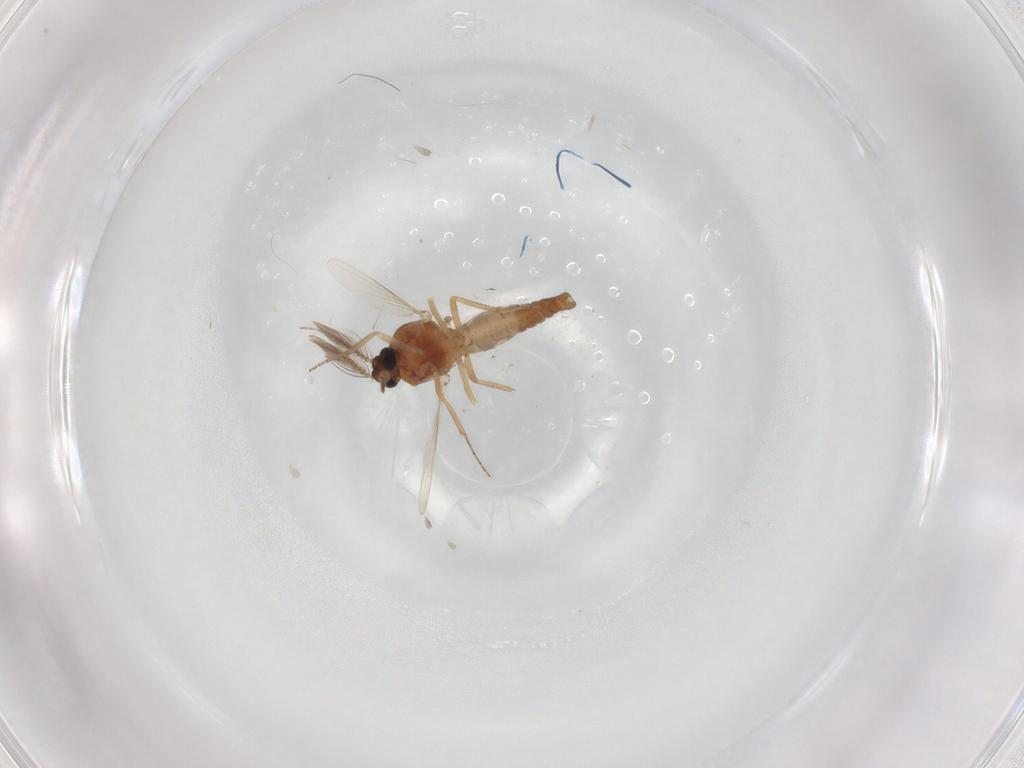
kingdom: Animalia
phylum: Arthropoda
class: Insecta
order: Diptera
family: Ceratopogonidae
